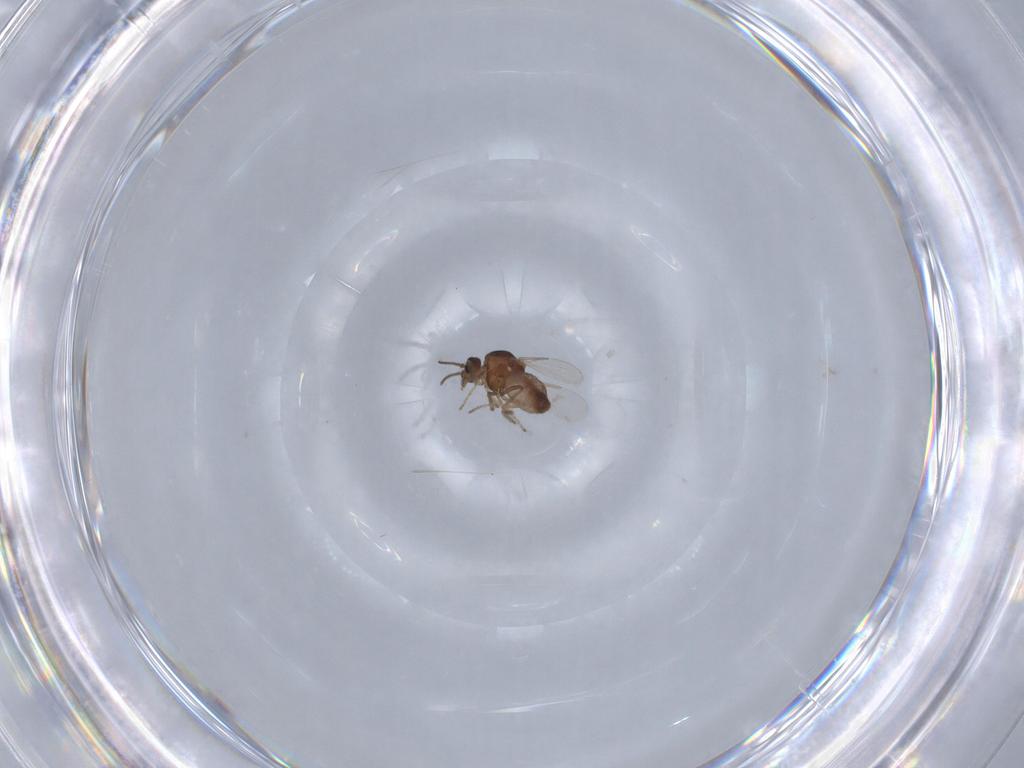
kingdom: Animalia
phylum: Arthropoda
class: Insecta
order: Diptera
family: Ceratopogonidae
